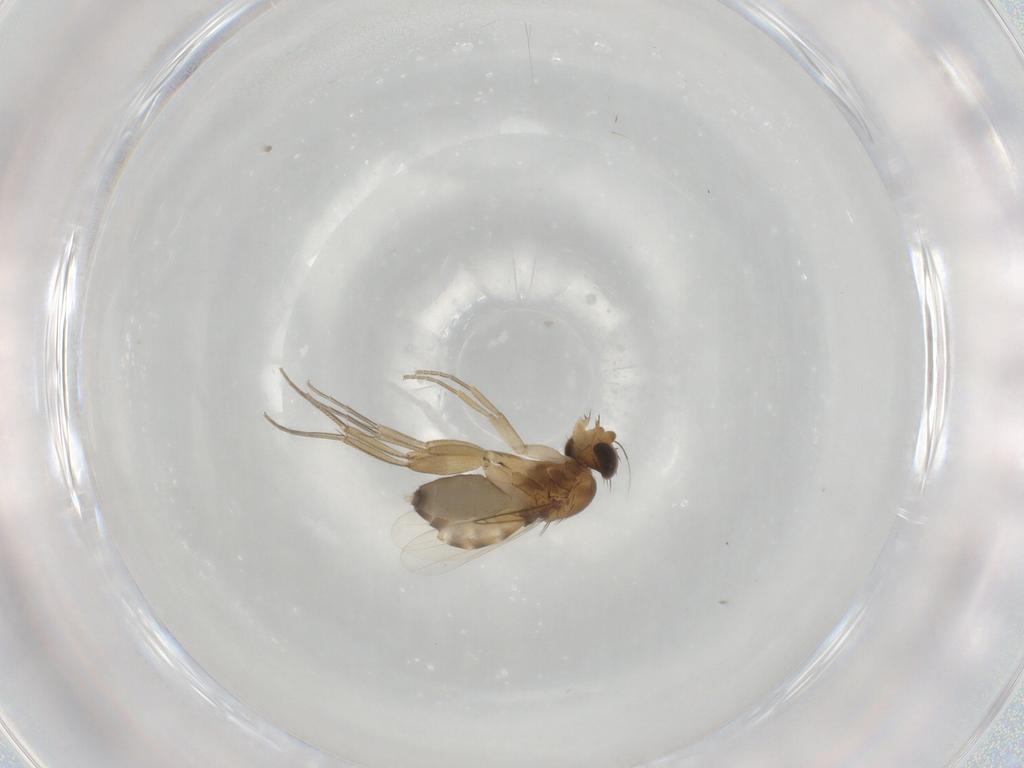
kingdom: Animalia
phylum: Arthropoda
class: Insecta
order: Diptera
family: Phoridae
